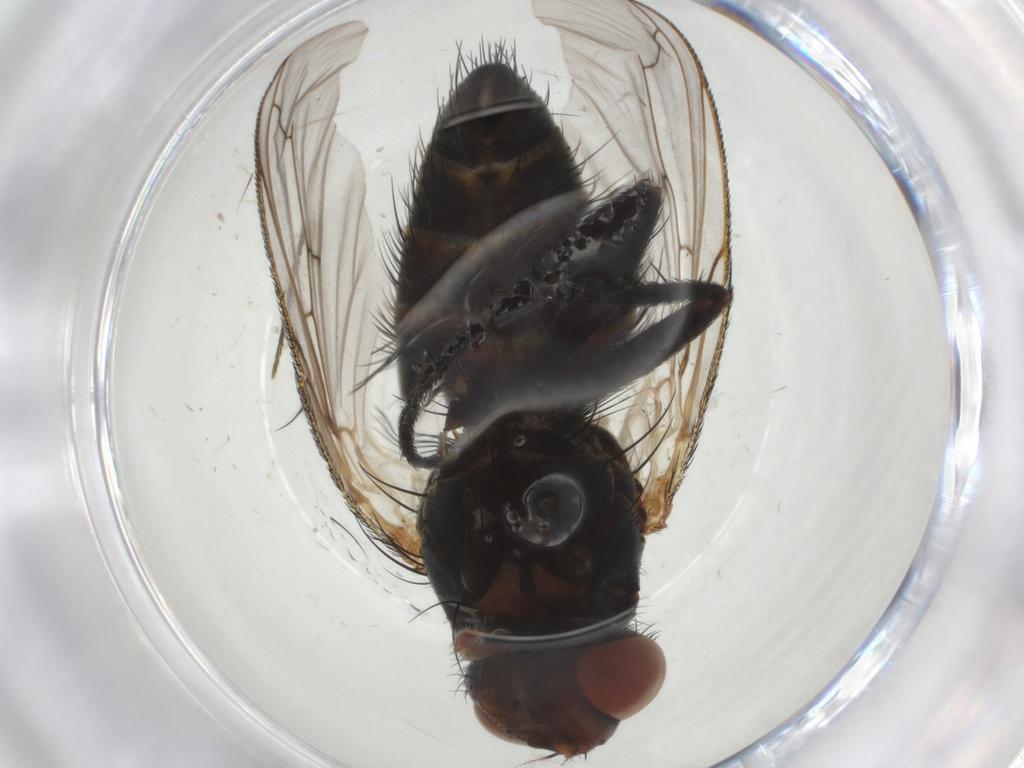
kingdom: Animalia
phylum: Arthropoda
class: Insecta
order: Diptera
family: Tachinidae
